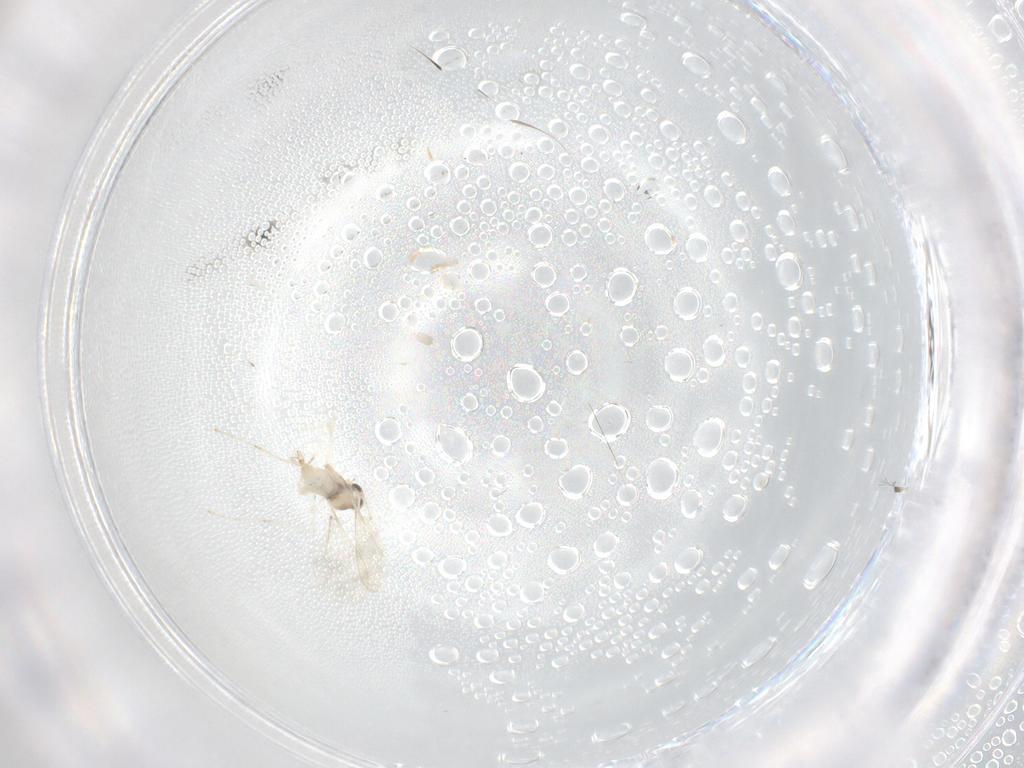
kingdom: Animalia
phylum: Arthropoda
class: Insecta
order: Diptera
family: Cecidomyiidae
